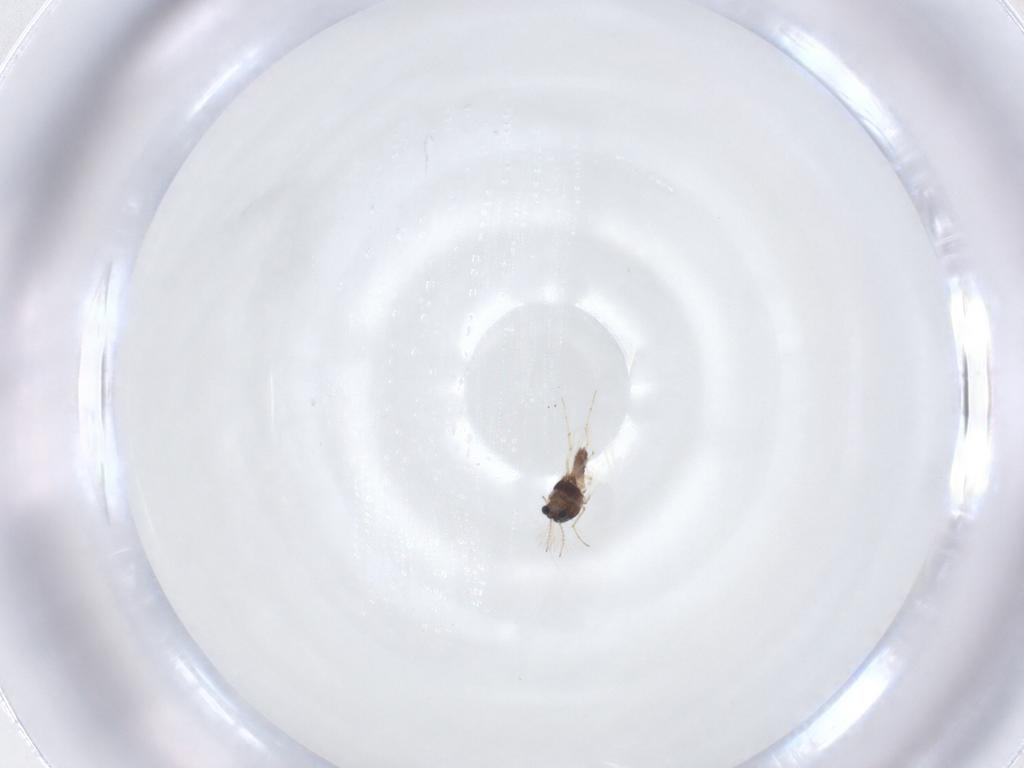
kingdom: Animalia
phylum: Arthropoda
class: Insecta
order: Diptera
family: Chironomidae
